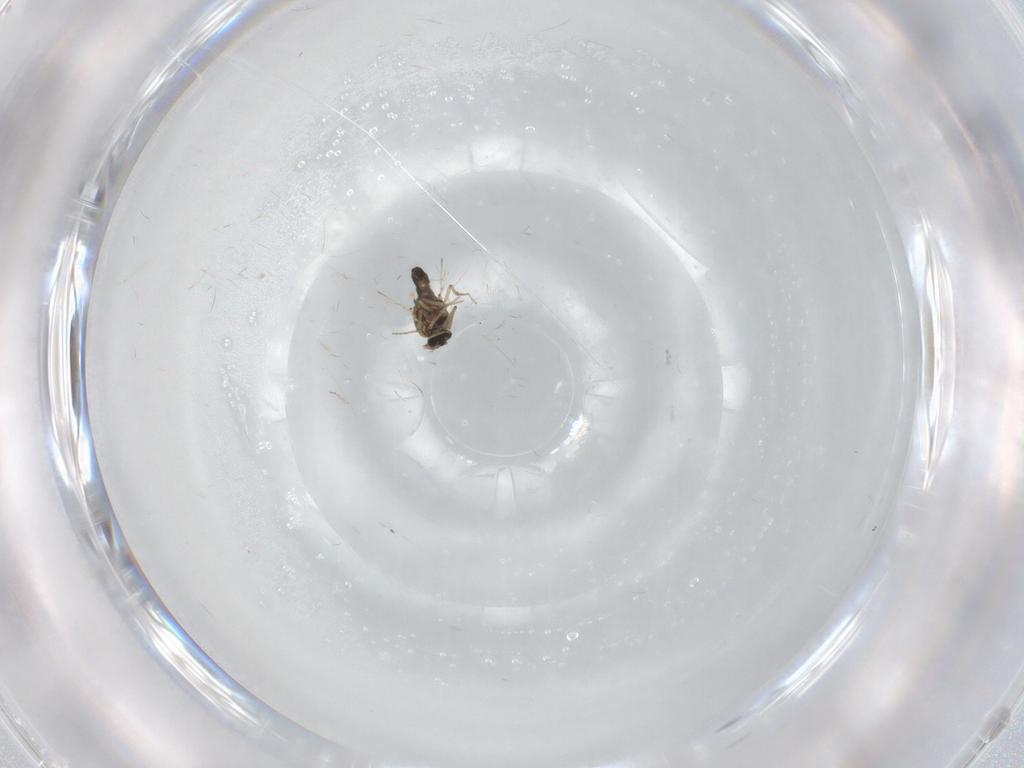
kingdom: Animalia
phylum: Arthropoda
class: Insecta
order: Diptera
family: Ceratopogonidae
